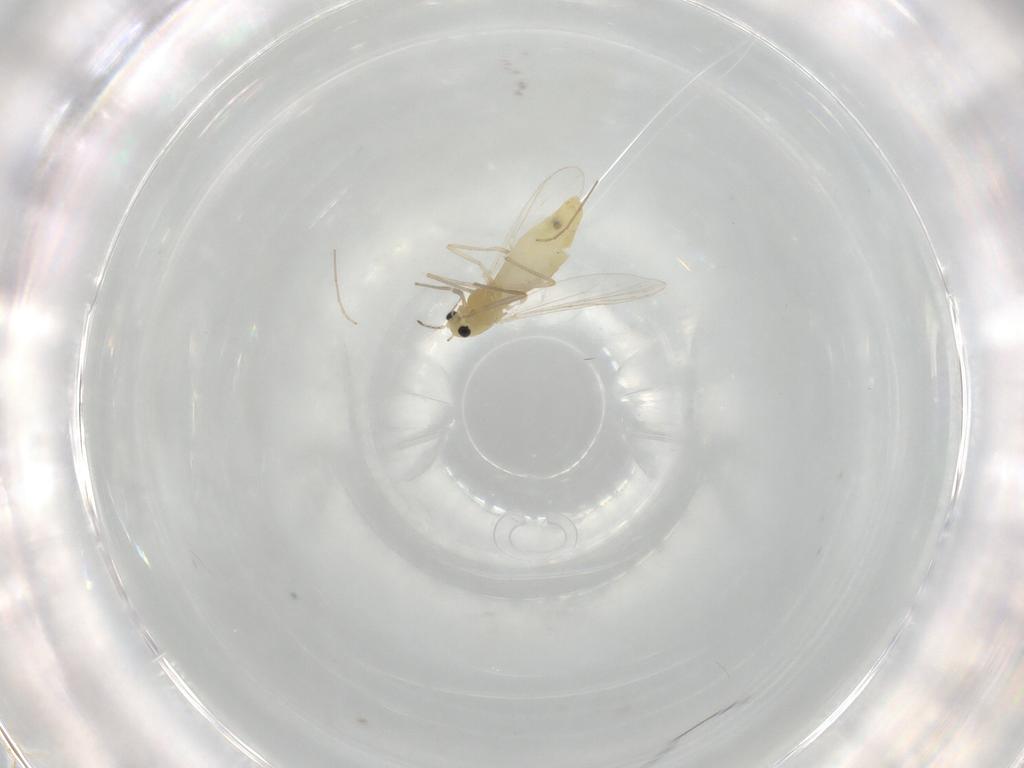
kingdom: Animalia
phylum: Arthropoda
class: Insecta
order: Diptera
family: Chironomidae
